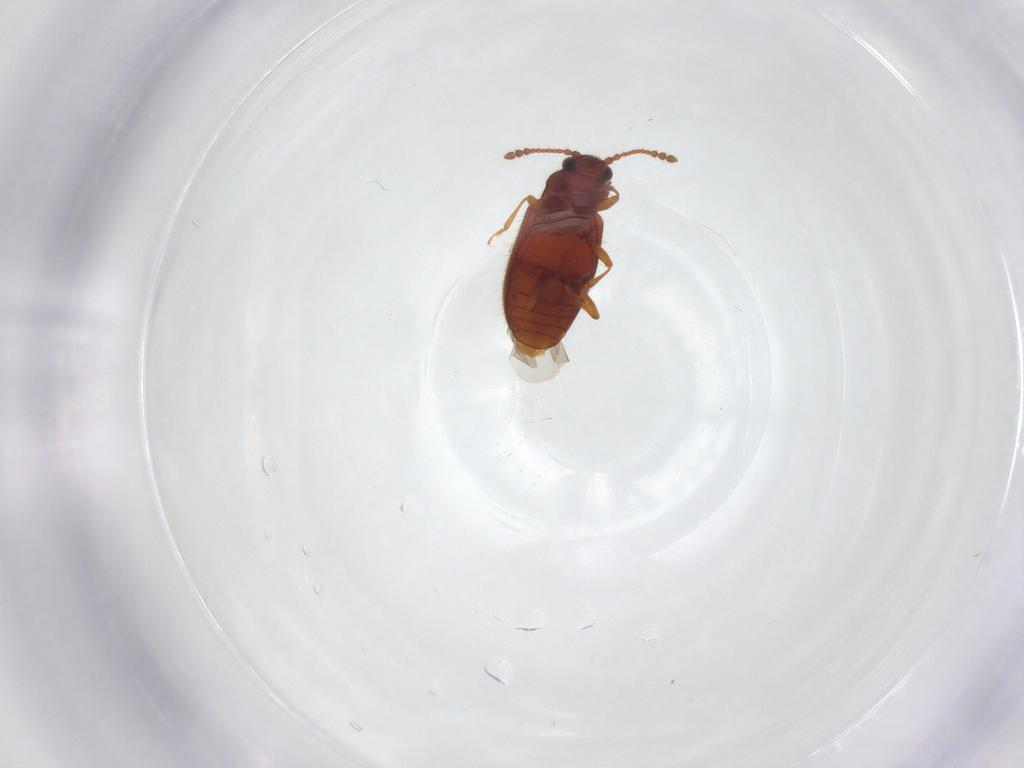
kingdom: Animalia
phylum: Arthropoda
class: Insecta
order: Coleoptera
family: Cryptophagidae
